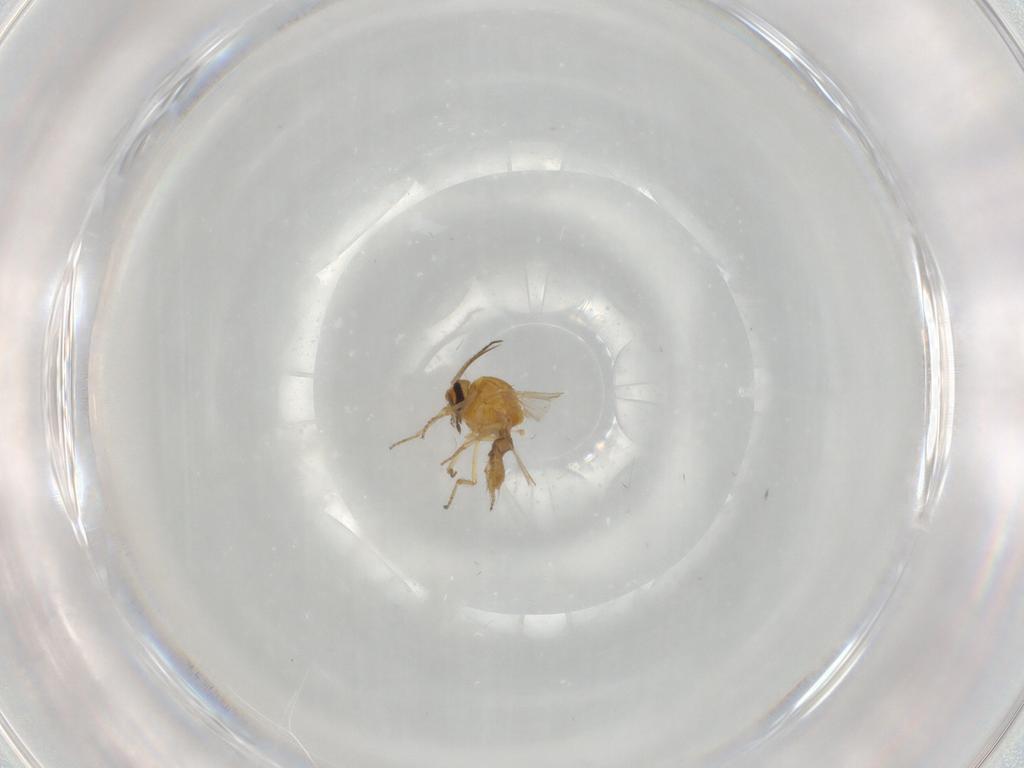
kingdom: Animalia
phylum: Arthropoda
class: Insecta
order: Diptera
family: Ceratopogonidae
